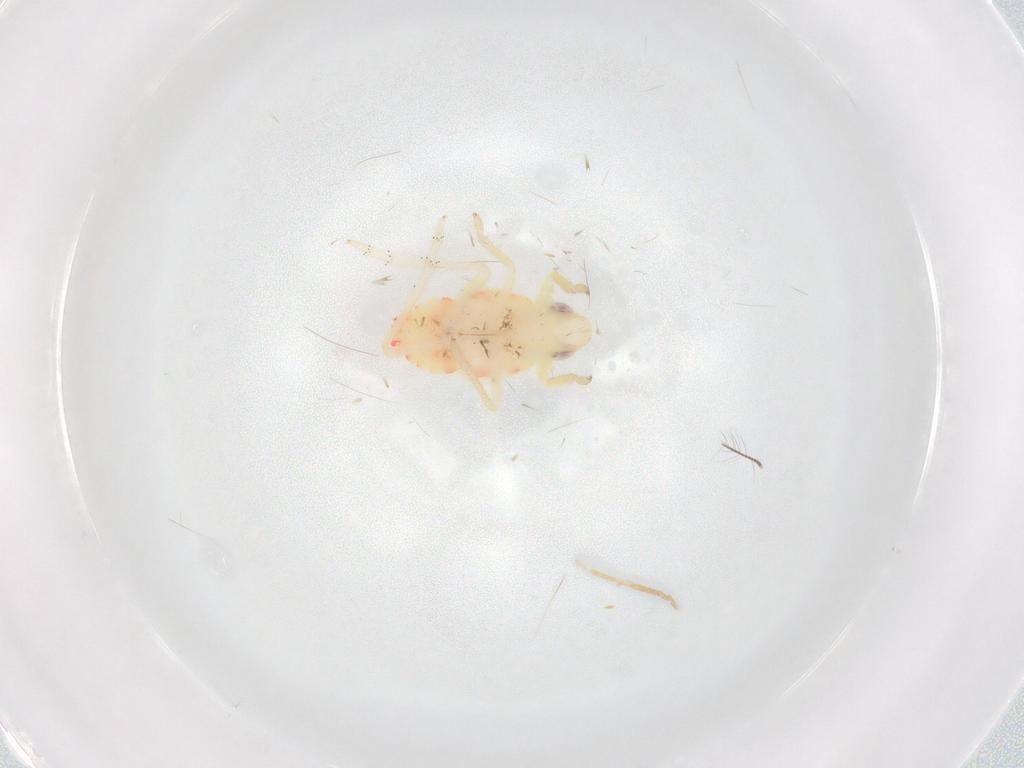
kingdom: Animalia
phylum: Arthropoda
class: Insecta
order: Hemiptera
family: Tropiduchidae
